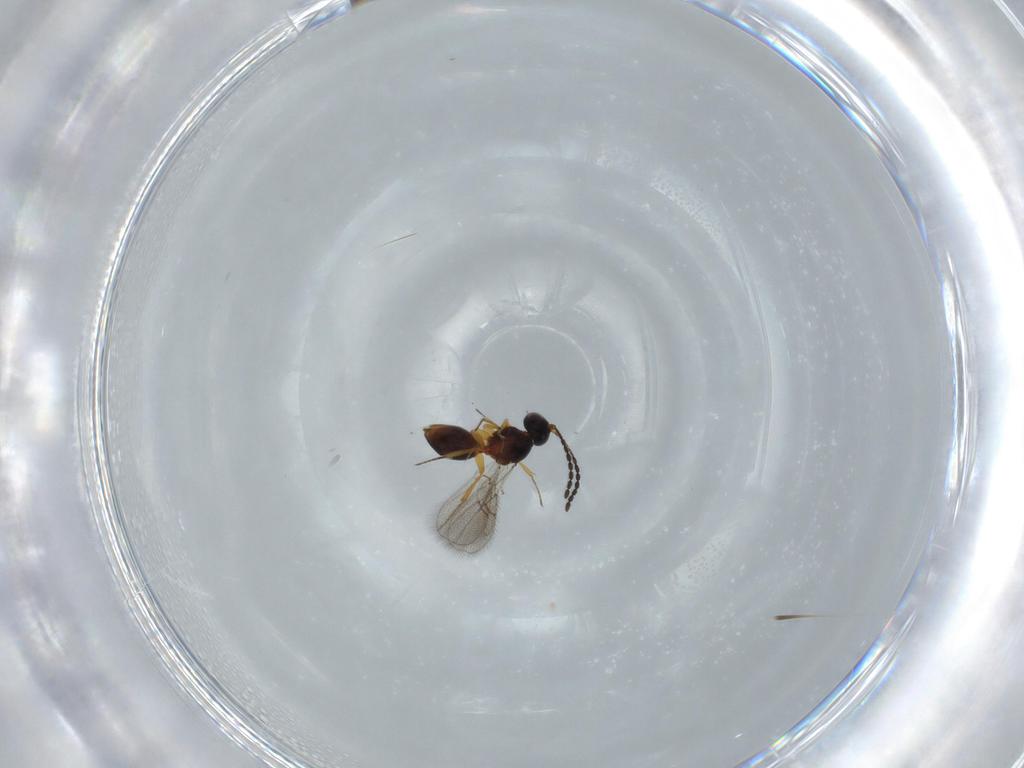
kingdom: Animalia
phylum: Arthropoda
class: Insecta
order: Hymenoptera
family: Figitidae
